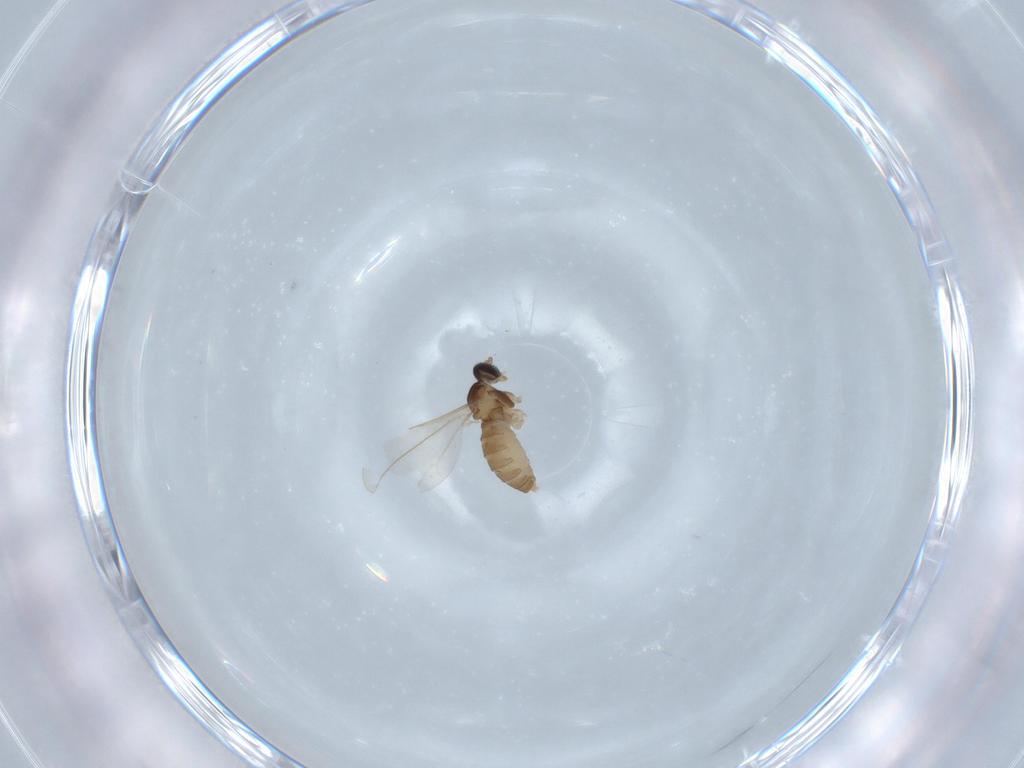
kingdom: Animalia
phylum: Arthropoda
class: Insecta
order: Diptera
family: Cecidomyiidae
